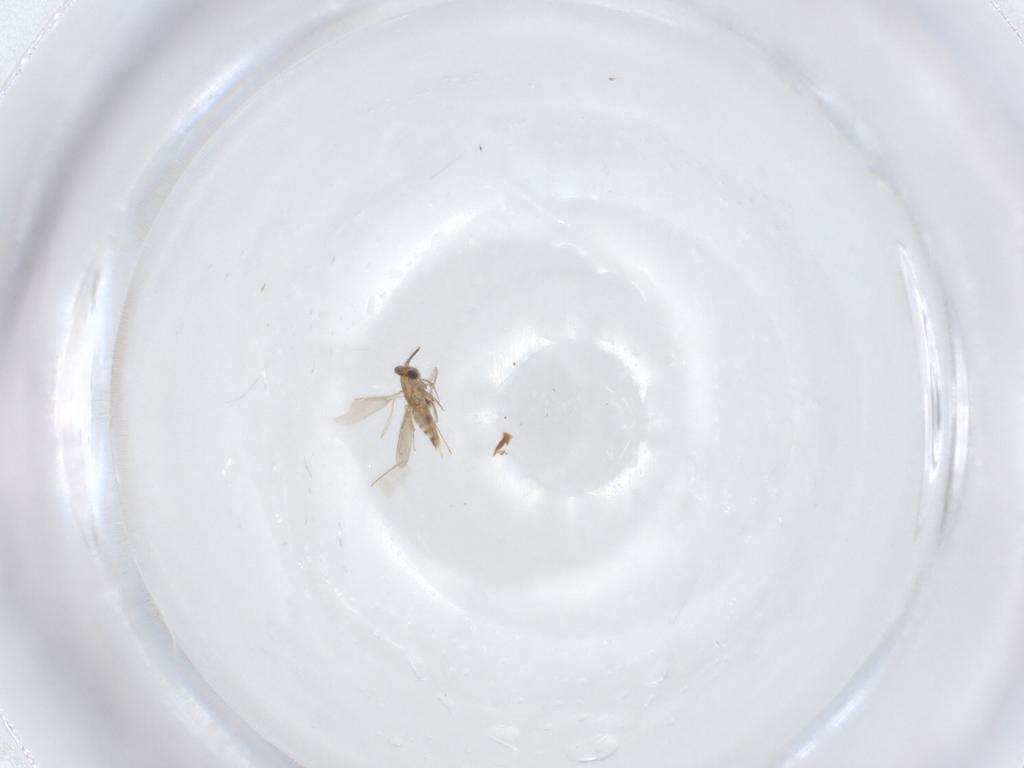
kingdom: Animalia
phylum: Arthropoda
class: Insecta
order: Hymenoptera
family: Aphelinidae
